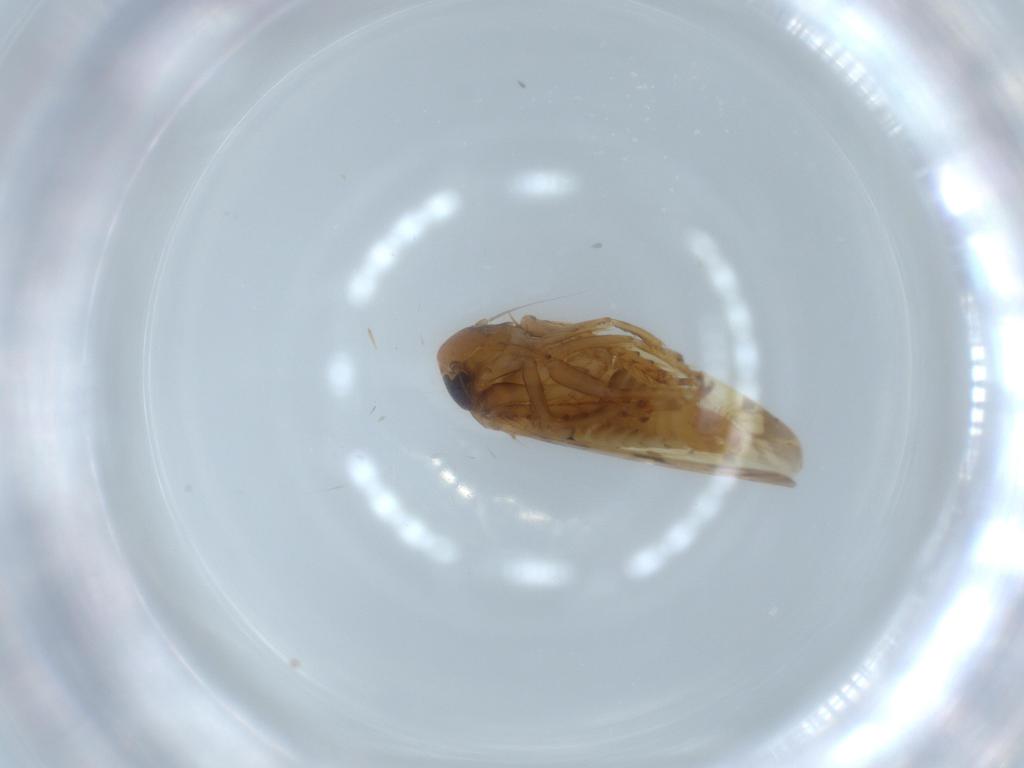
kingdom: Animalia
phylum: Arthropoda
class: Insecta
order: Hemiptera
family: Cicadellidae
